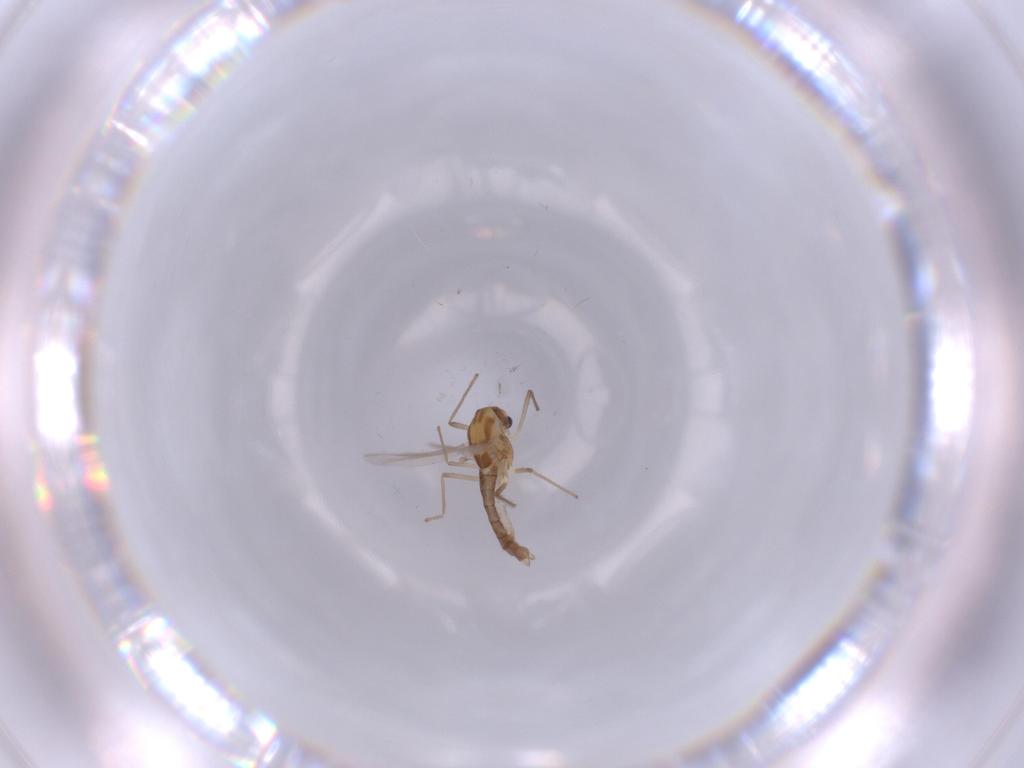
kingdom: Animalia
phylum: Arthropoda
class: Insecta
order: Diptera
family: Chironomidae
